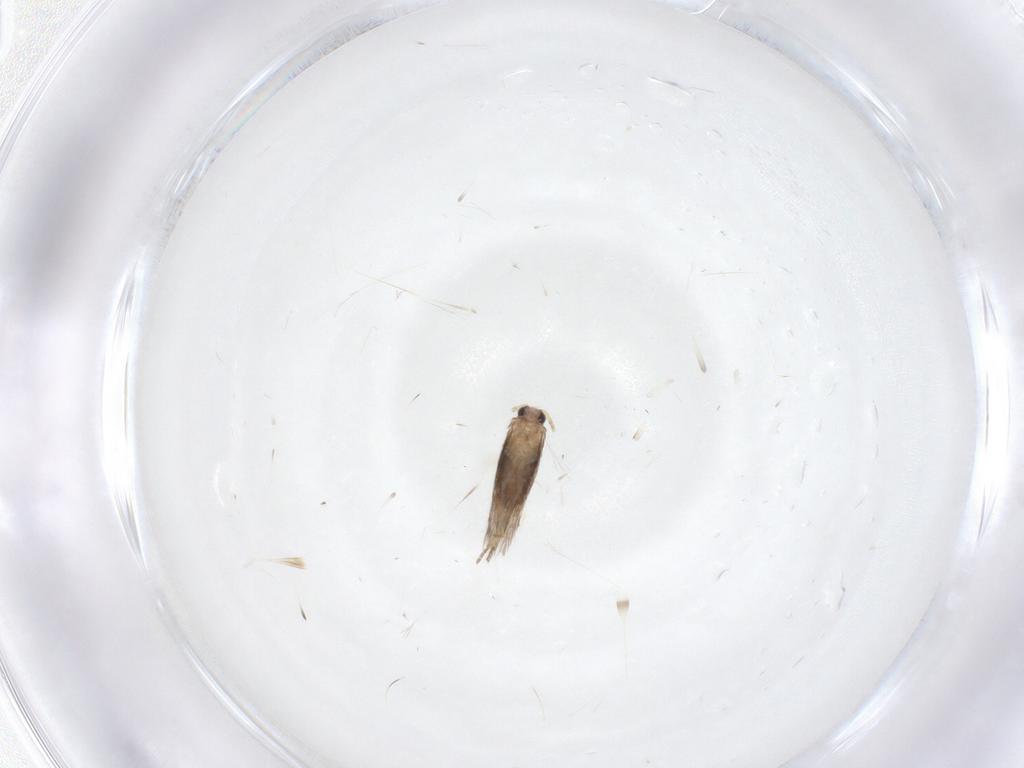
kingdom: Animalia
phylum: Arthropoda
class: Insecta
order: Lepidoptera
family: Nepticulidae
